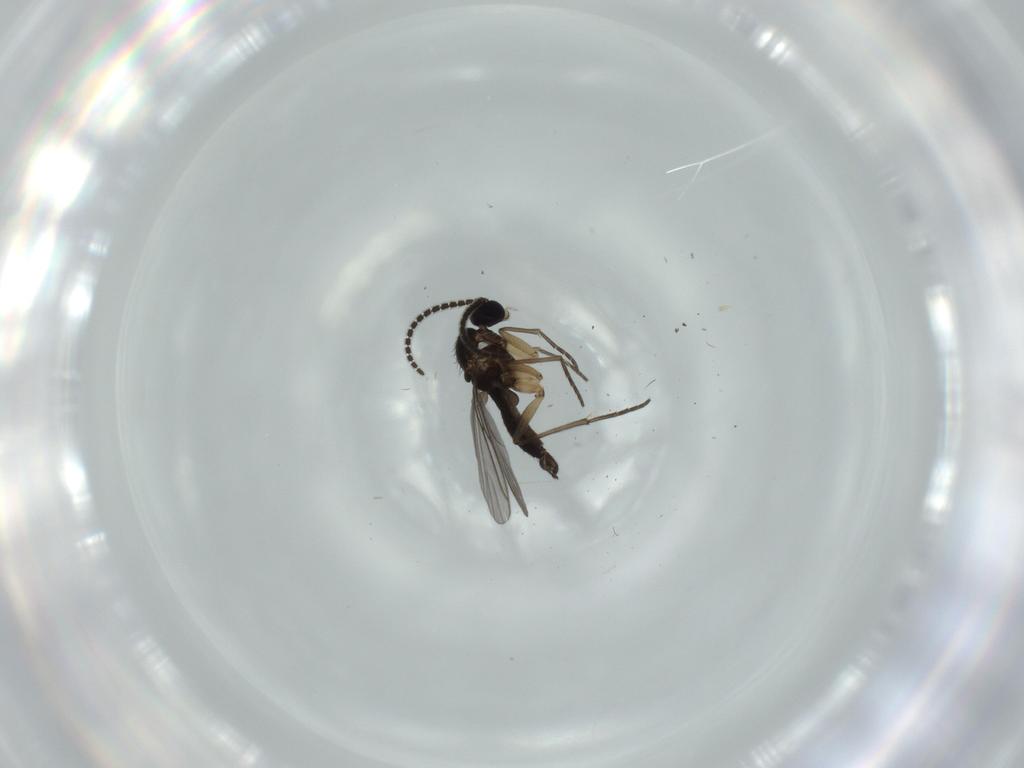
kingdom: Animalia
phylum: Arthropoda
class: Insecta
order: Diptera
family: Sciaridae
